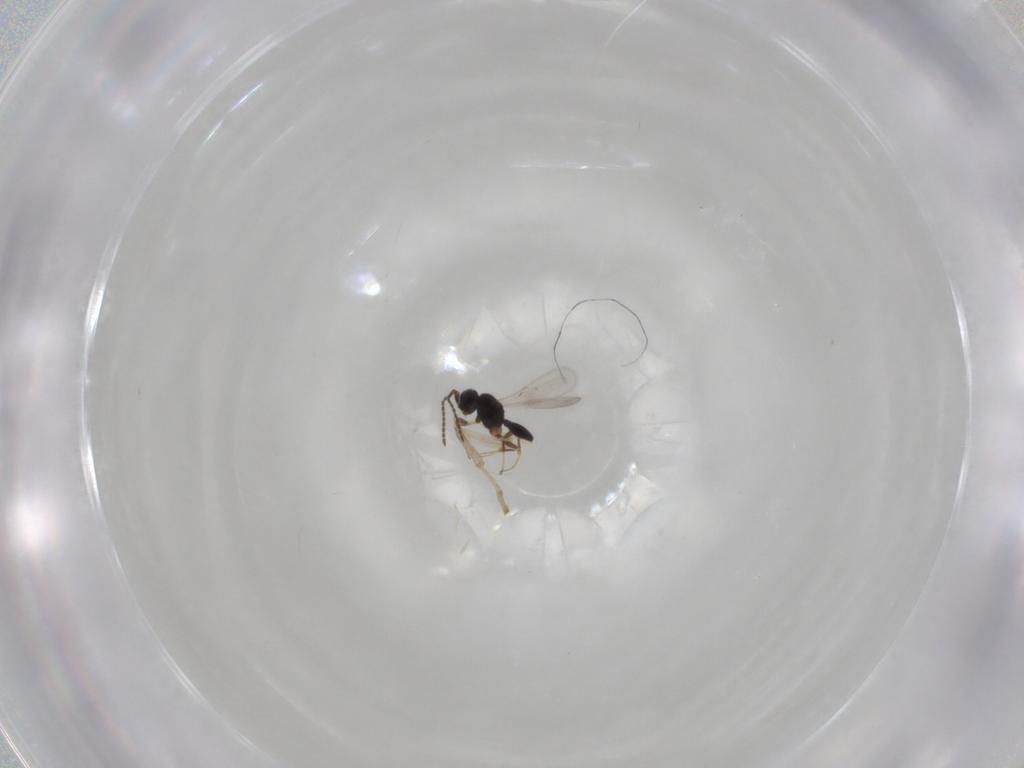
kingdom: Animalia
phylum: Arthropoda
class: Insecta
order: Hymenoptera
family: Scelionidae
